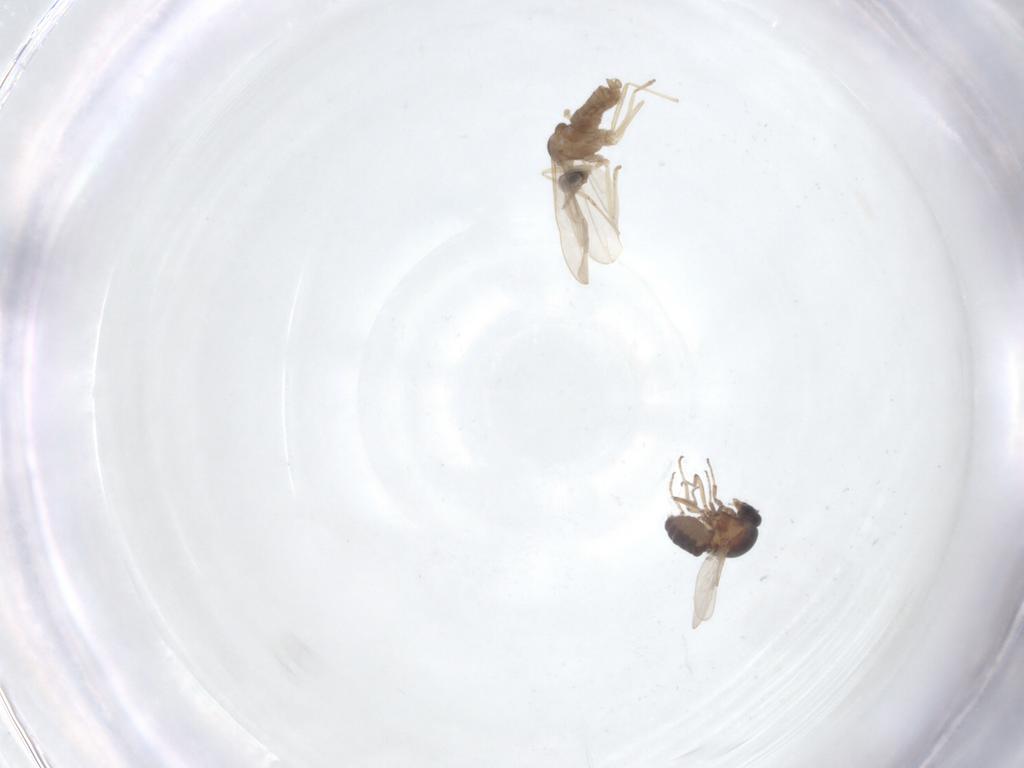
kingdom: Animalia
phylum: Arthropoda
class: Insecta
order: Diptera
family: Ceratopogonidae
